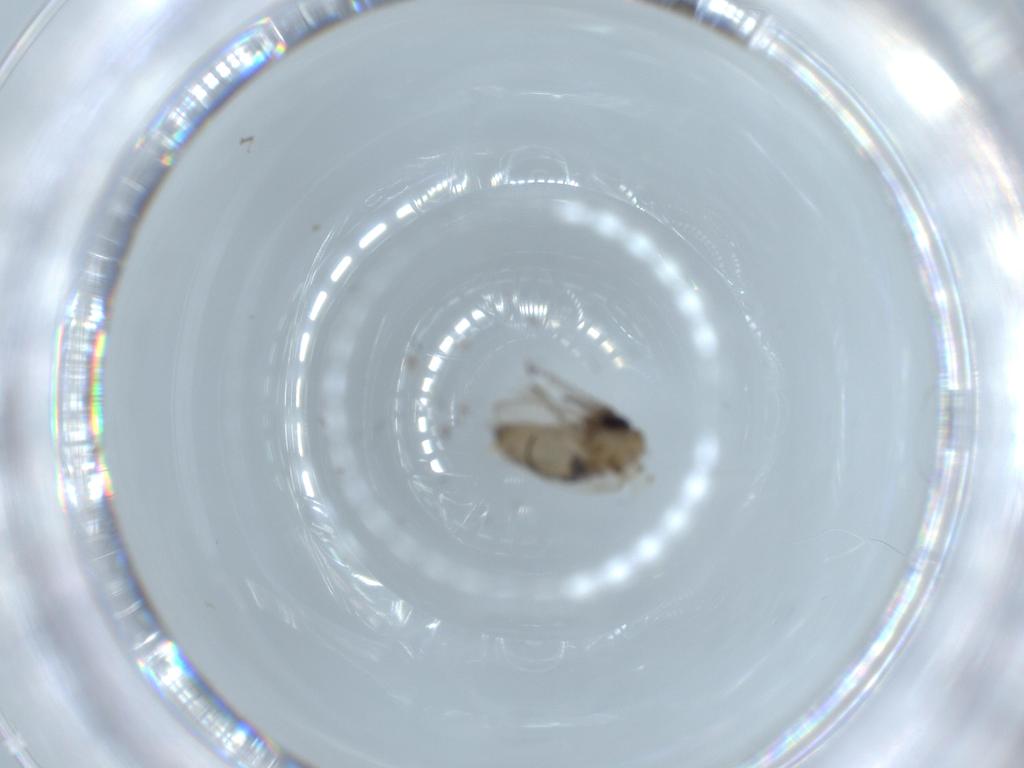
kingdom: Animalia
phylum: Arthropoda
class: Insecta
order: Diptera
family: Psychodidae
